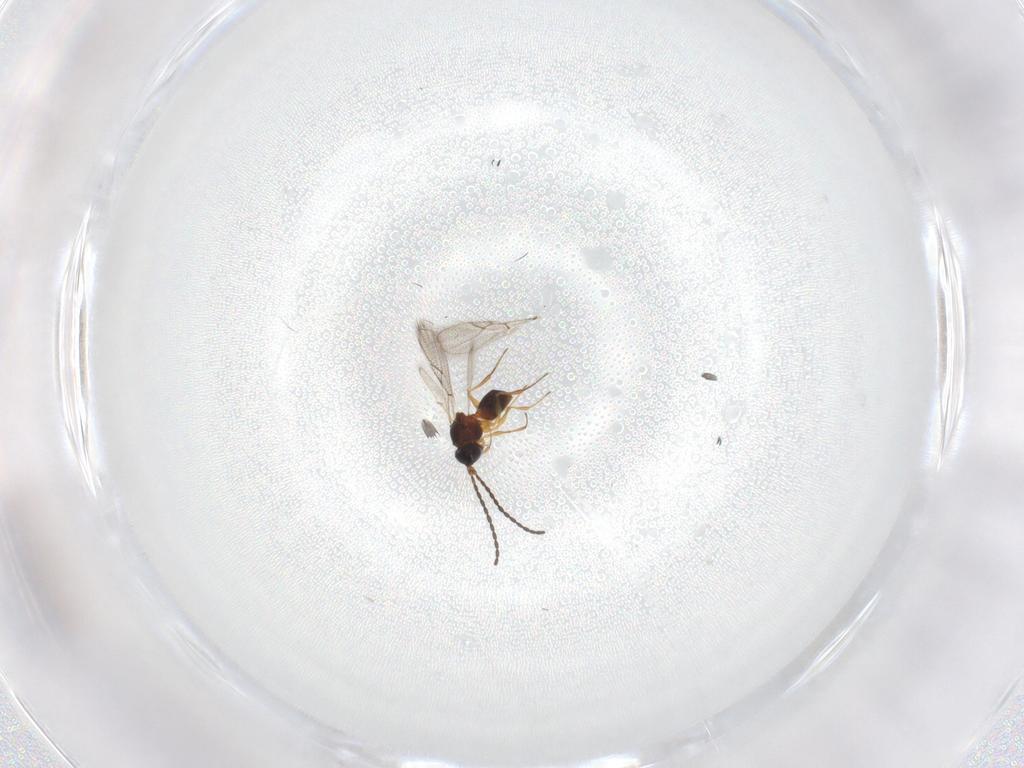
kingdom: Animalia
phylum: Arthropoda
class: Insecta
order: Hymenoptera
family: Figitidae
